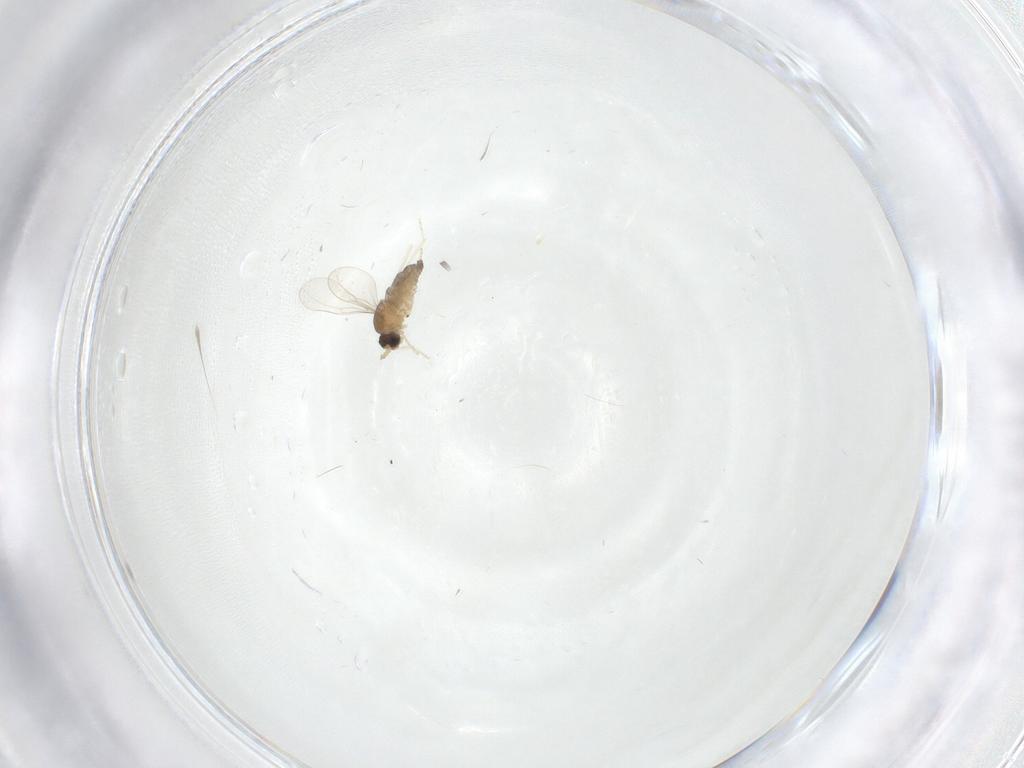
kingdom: Animalia
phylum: Arthropoda
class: Insecta
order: Diptera
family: Cecidomyiidae
